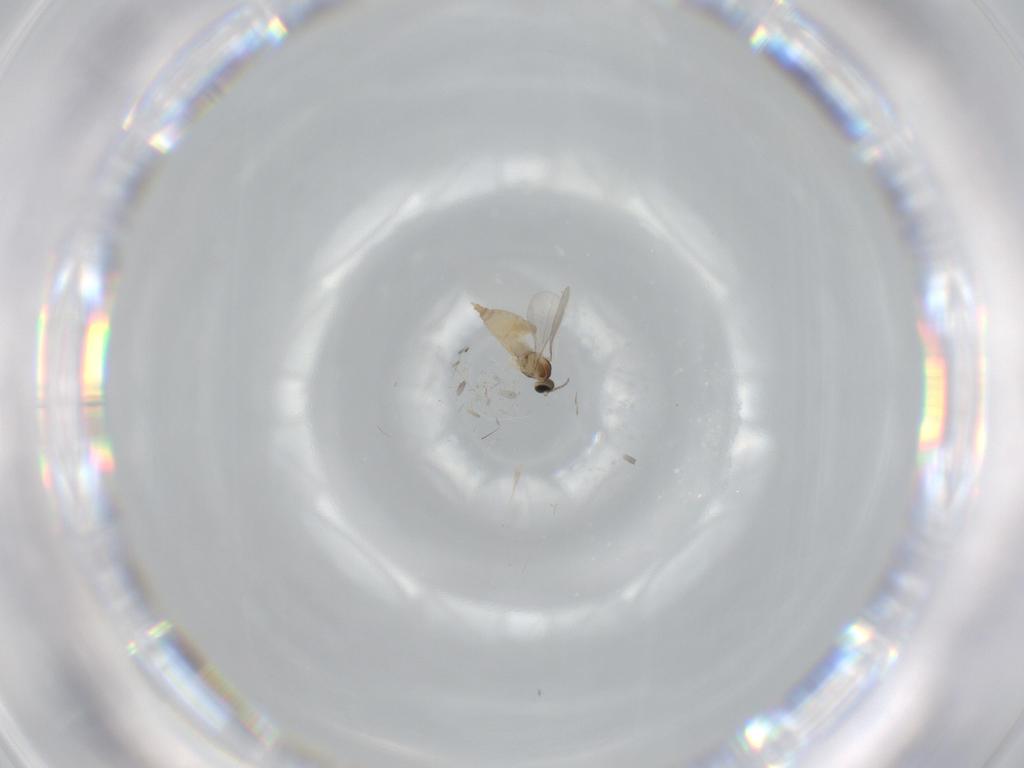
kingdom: Animalia
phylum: Arthropoda
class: Insecta
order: Diptera
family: Phoridae
